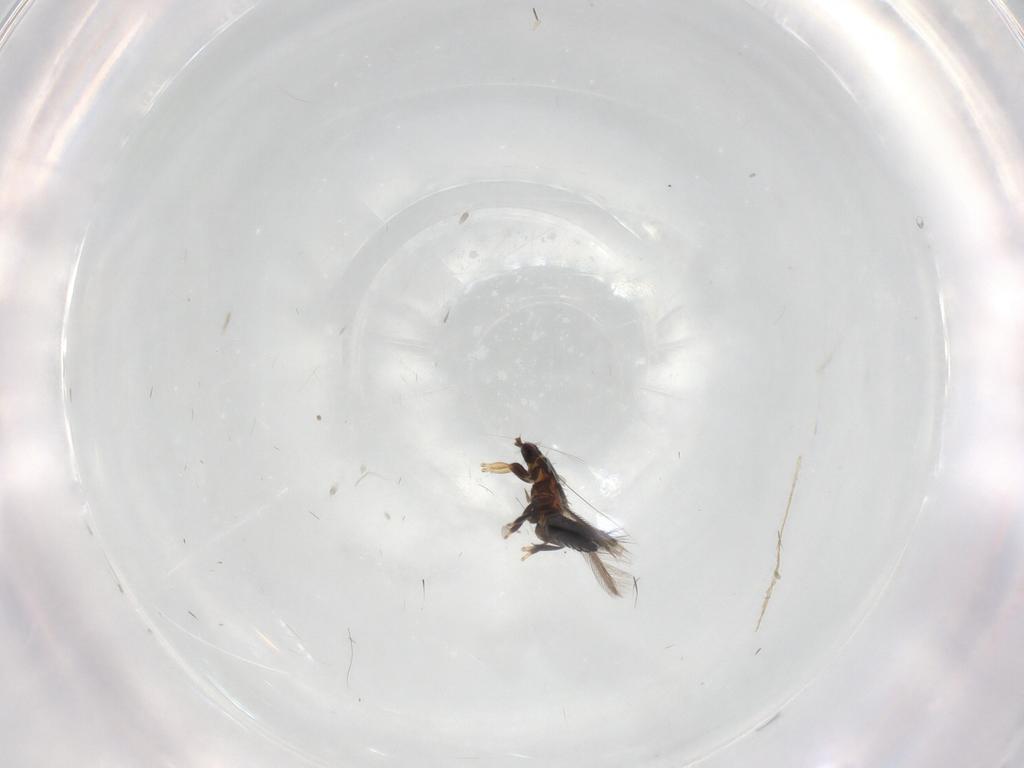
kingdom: Animalia
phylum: Arthropoda
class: Insecta
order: Thysanoptera
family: Thripidae
